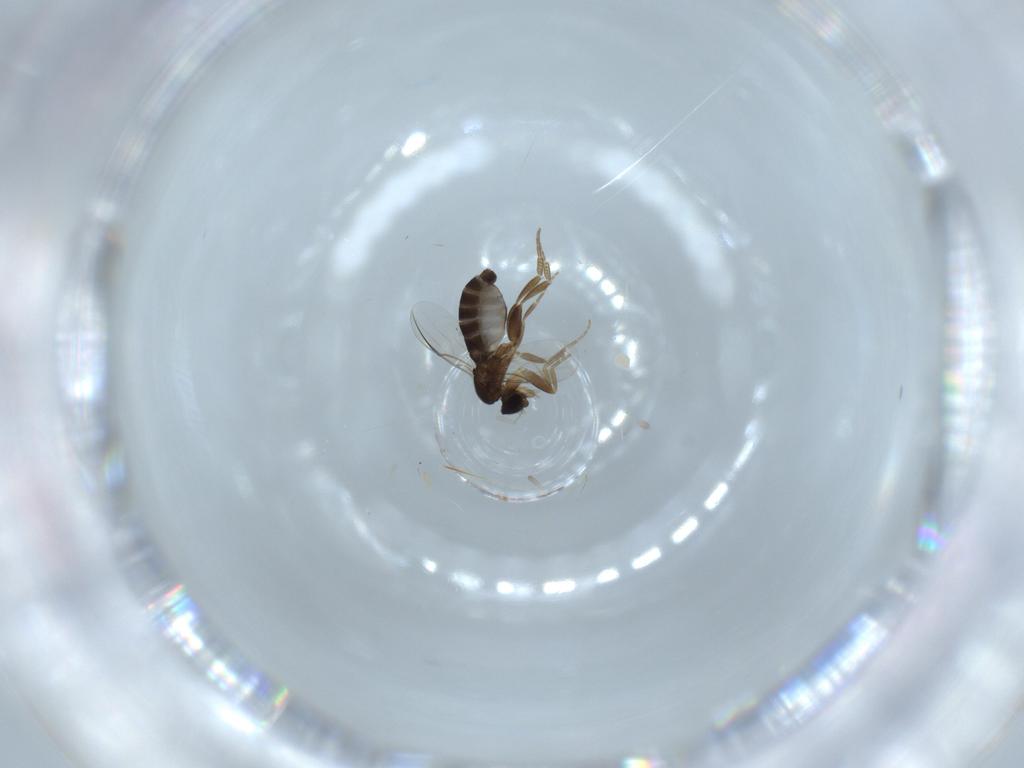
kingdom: Animalia
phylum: Arthropoda
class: Insecta
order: Diptera
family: Phoridae
